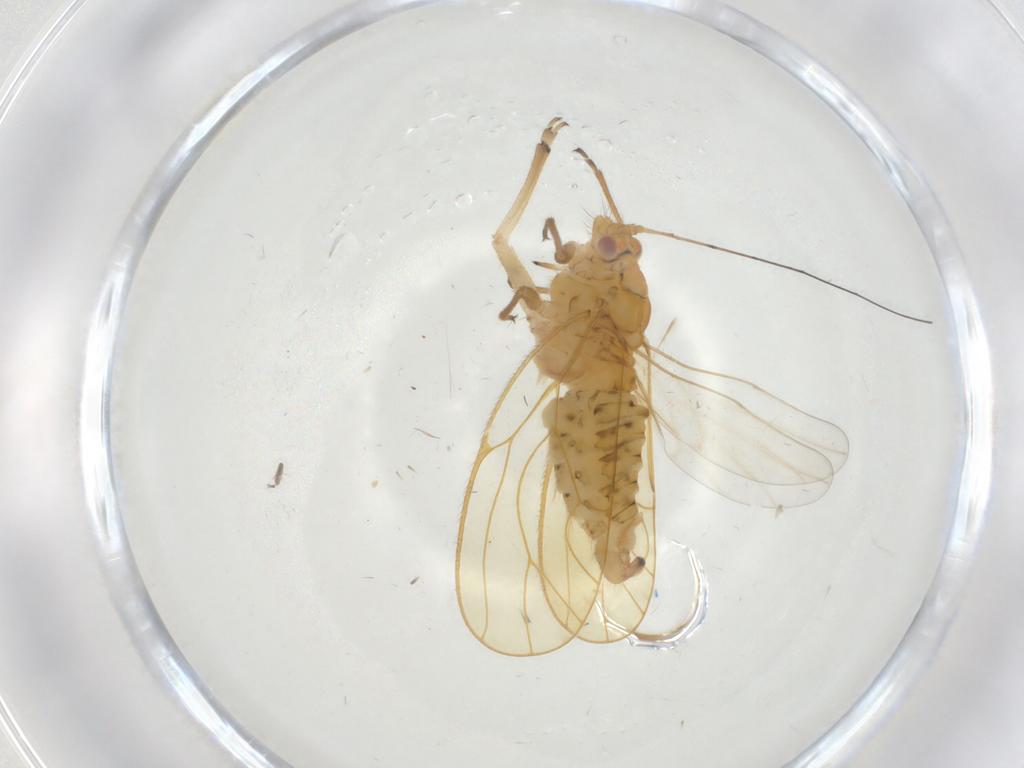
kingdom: Animalia
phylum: Arthropoda
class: Insecta
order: Hemiptera
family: Psyllidae
